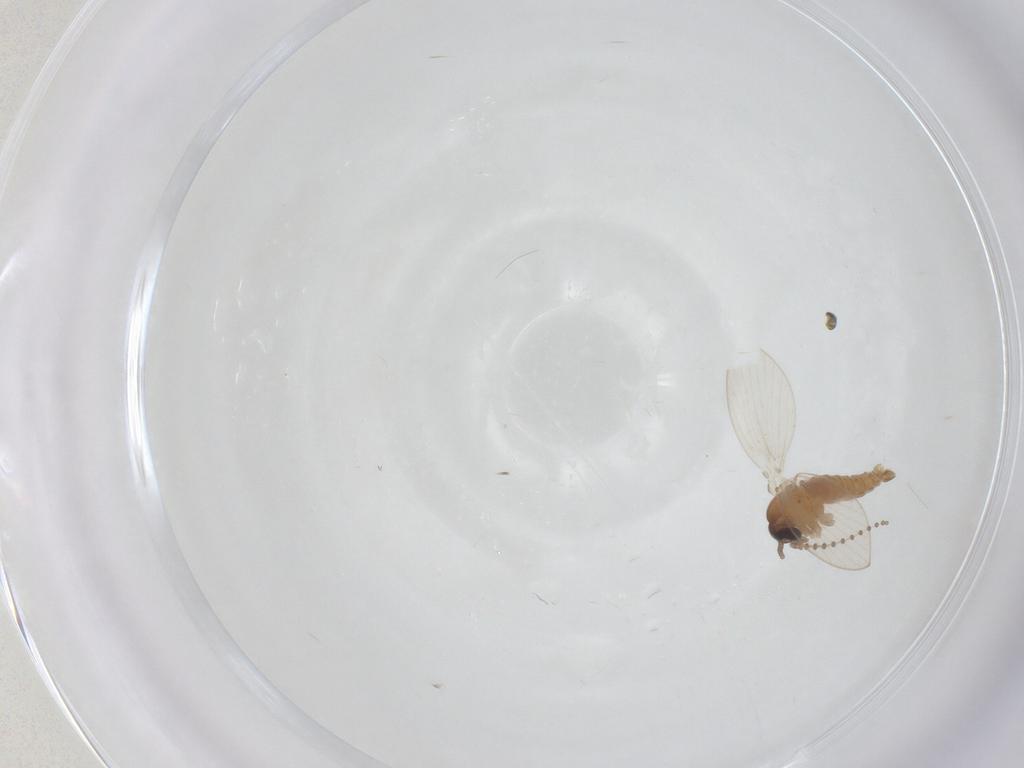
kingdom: Animalia
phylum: Arthropoda
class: Insecta
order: Diptera
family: Psychodidae
